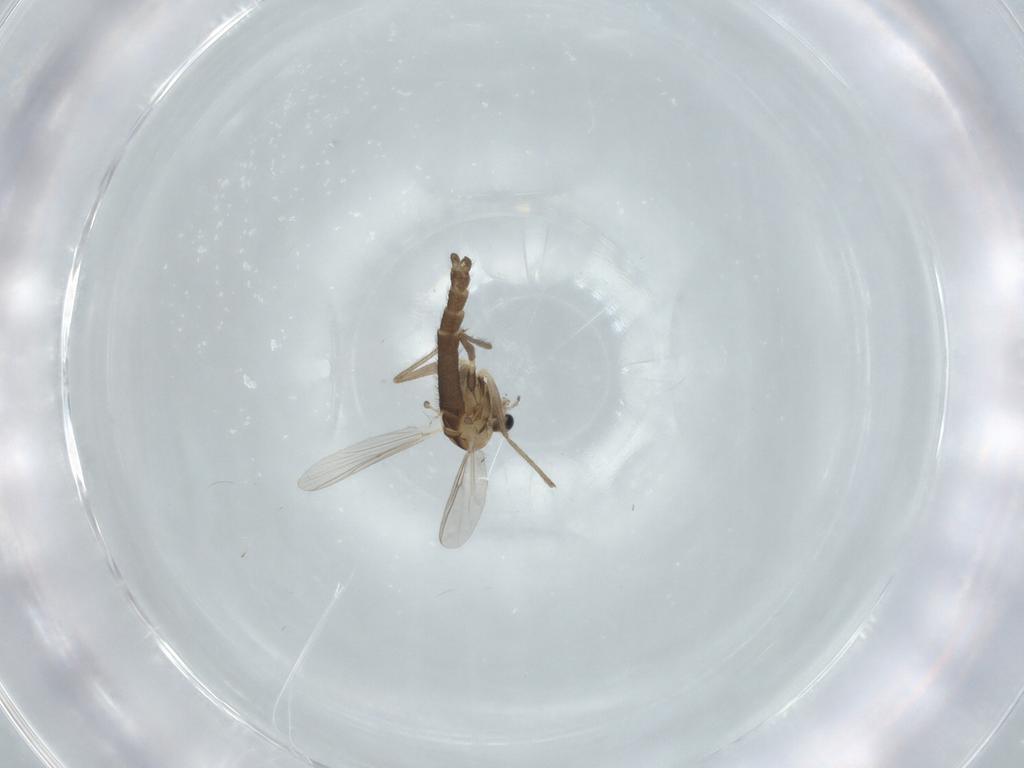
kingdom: Animalia
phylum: Arthropoda
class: Insecta
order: Diptera
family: Chironomidae
